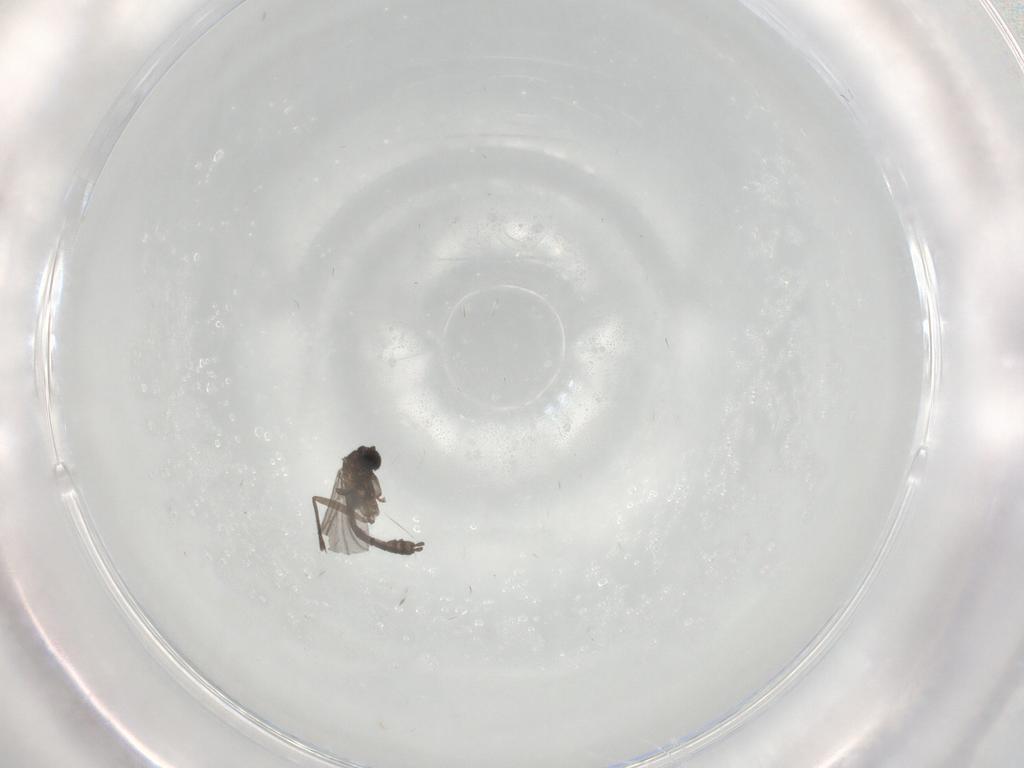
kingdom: Animalia
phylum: Arthropoda
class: Insecta
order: Diptera
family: Sciaridae
